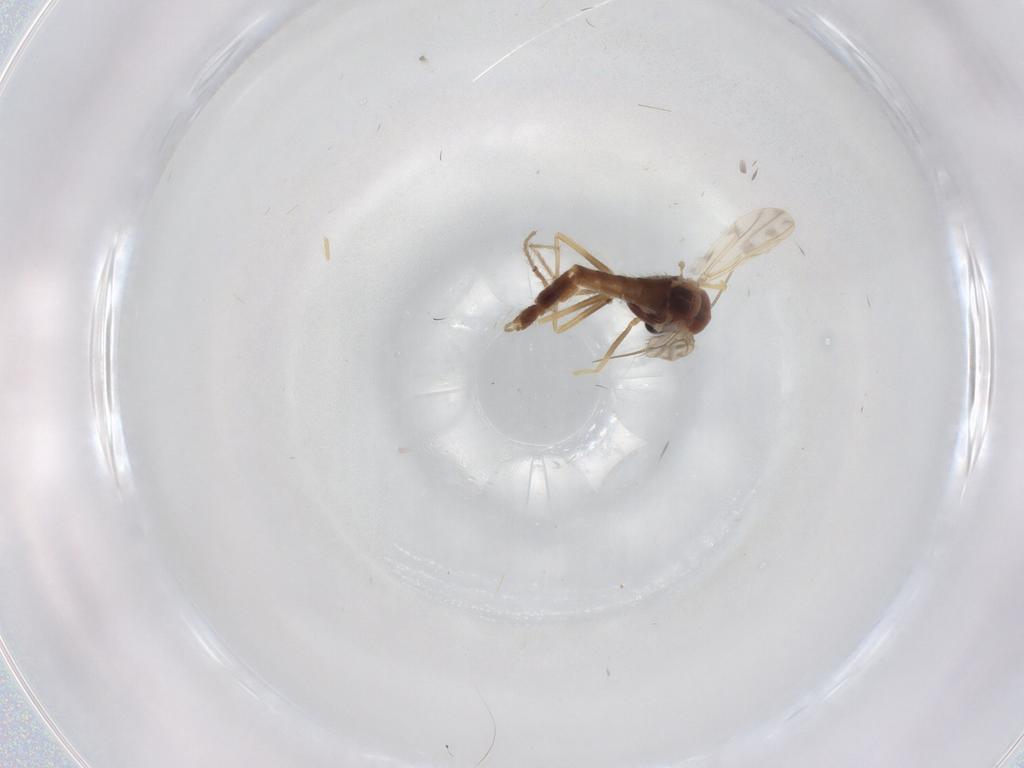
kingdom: Animalia
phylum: Arthropoda
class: Insecta
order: Diptera
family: Chironomidae
